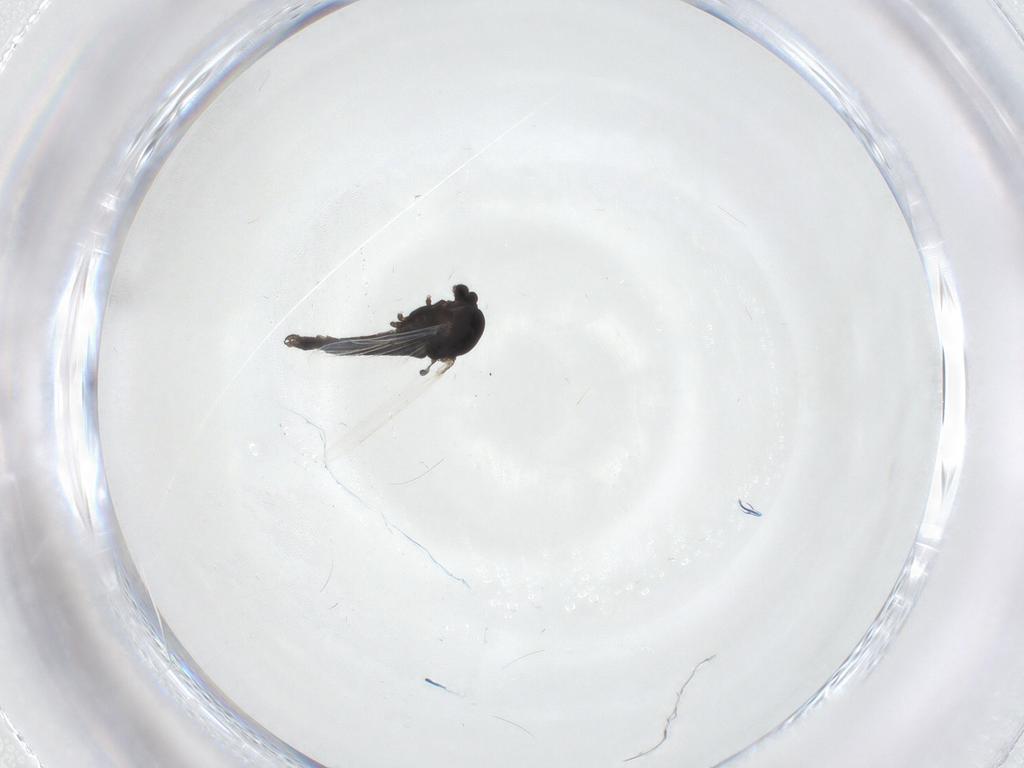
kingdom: Animalia
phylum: Arthropoda
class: Insecta
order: Diptera
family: Chironomidae
